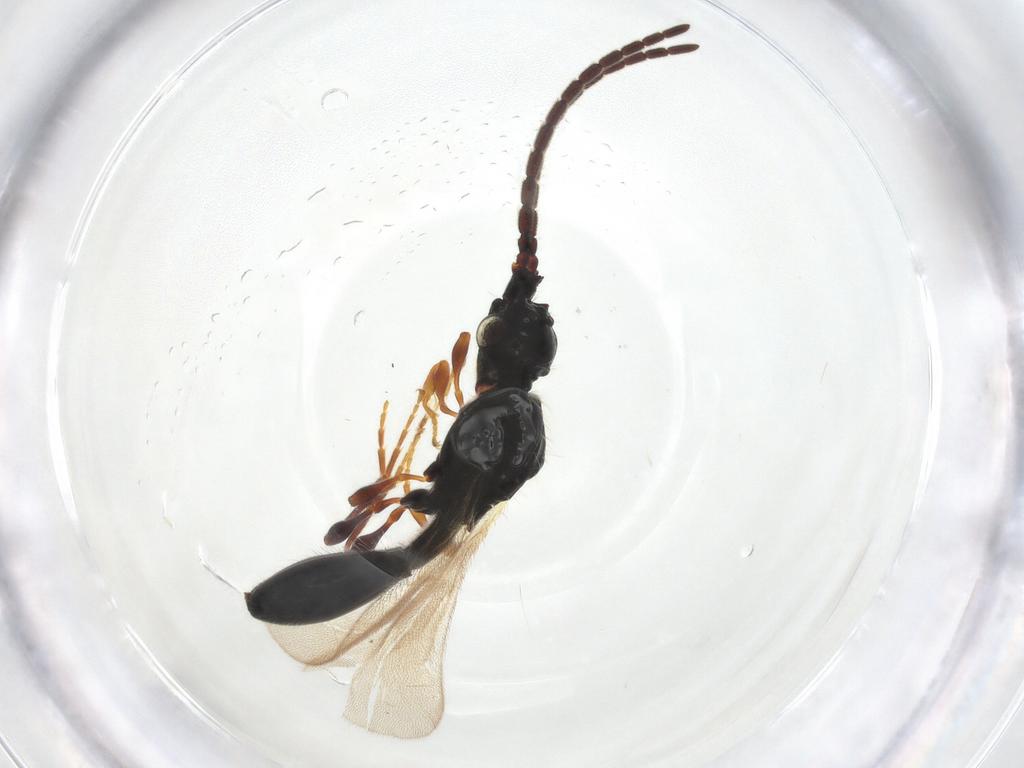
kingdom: Animalia
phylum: Arthropoda
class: Insecta
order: Hymenoptera
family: Diapriidae
